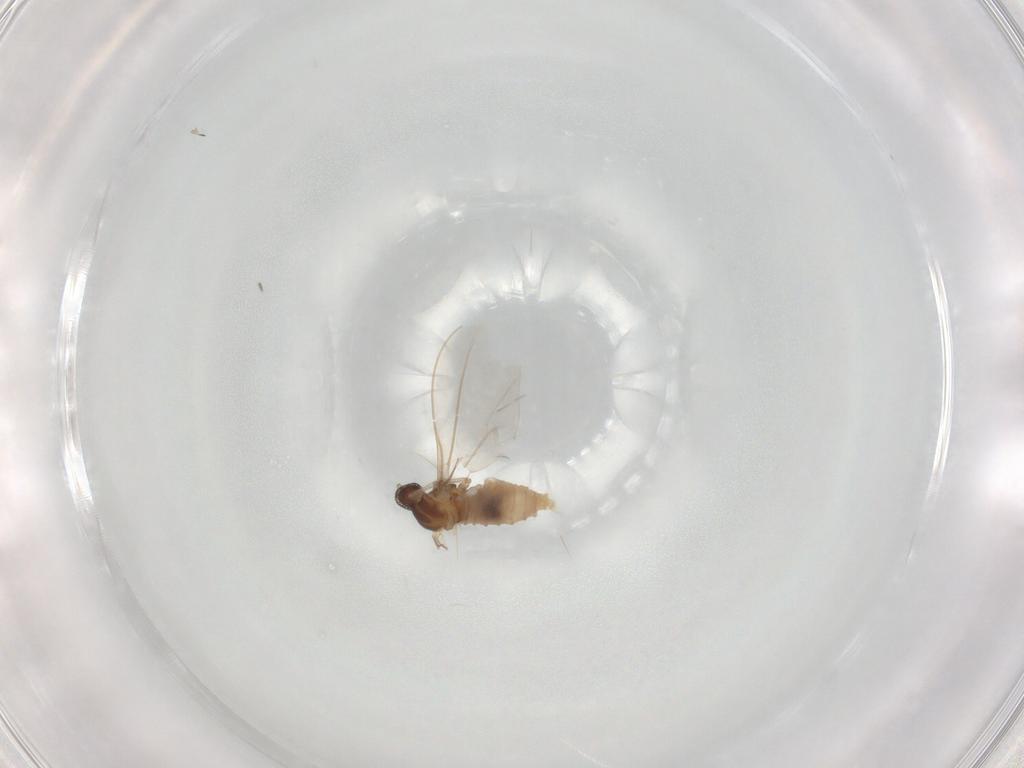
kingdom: Animalia
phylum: Arthropoda
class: Insecta
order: Diptera
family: Cecidomyiidae
